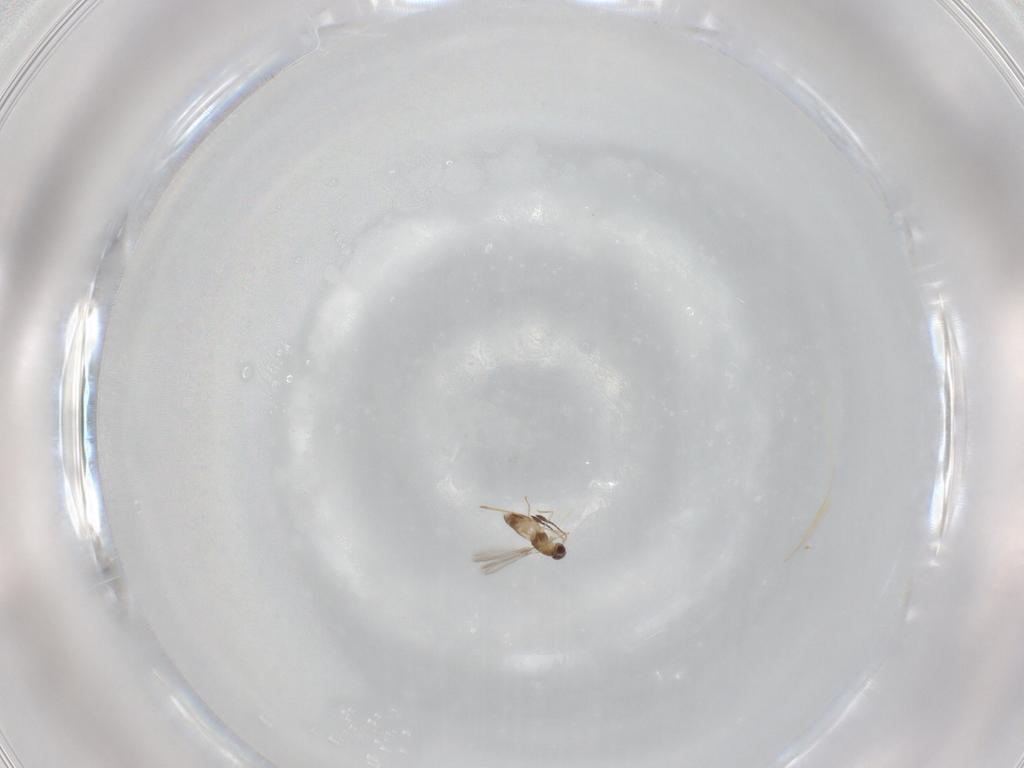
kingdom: Animalia
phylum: Arthropoda
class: Insecta
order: Hymenoptera
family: Mymaridae
